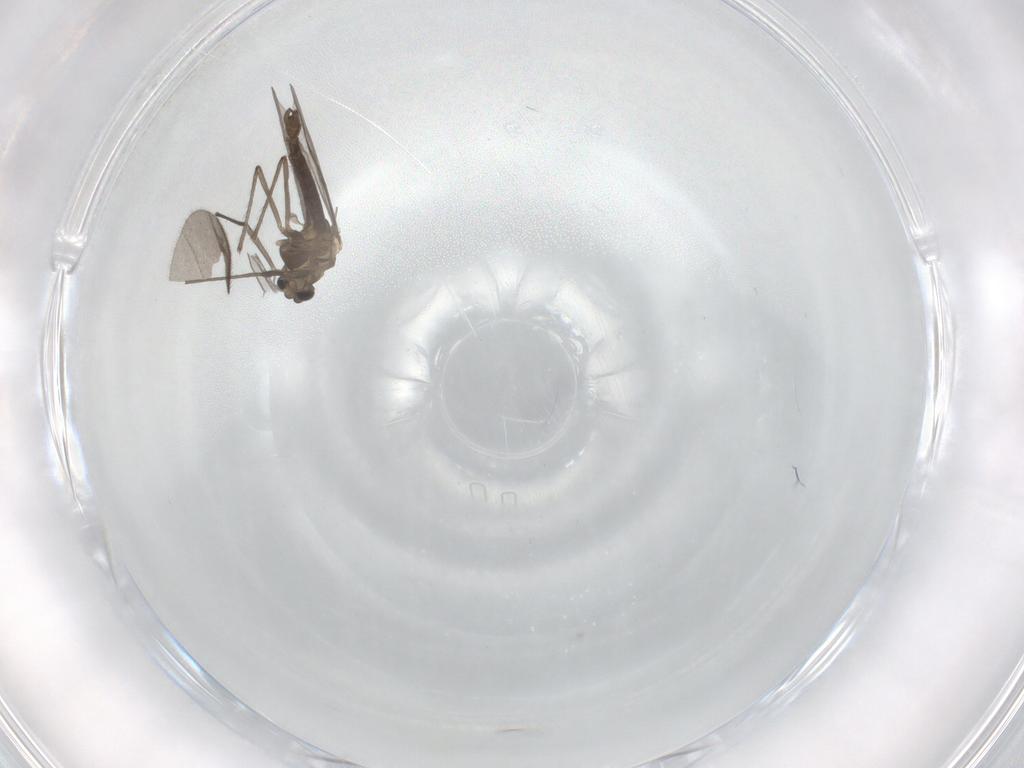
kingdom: Animalia
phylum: Arthropoda
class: Insecta
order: Diptera
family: Chironomidae
